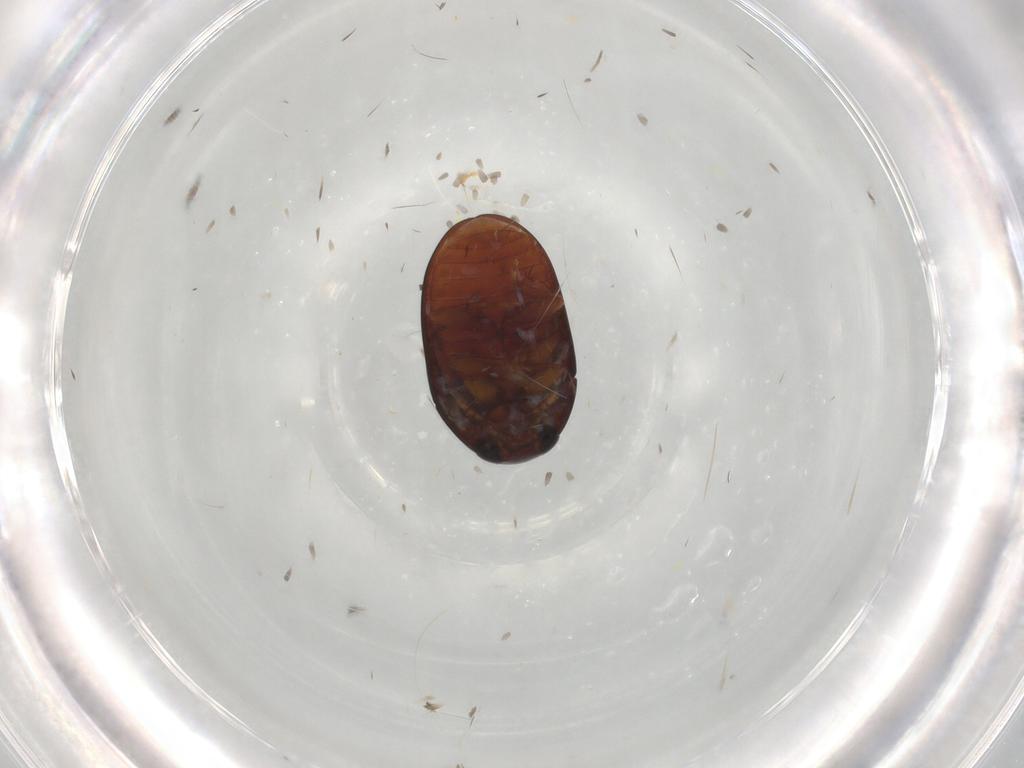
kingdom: Animalia
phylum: Arthropoda
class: Insecta
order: Coleoptera
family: Phalacridae
